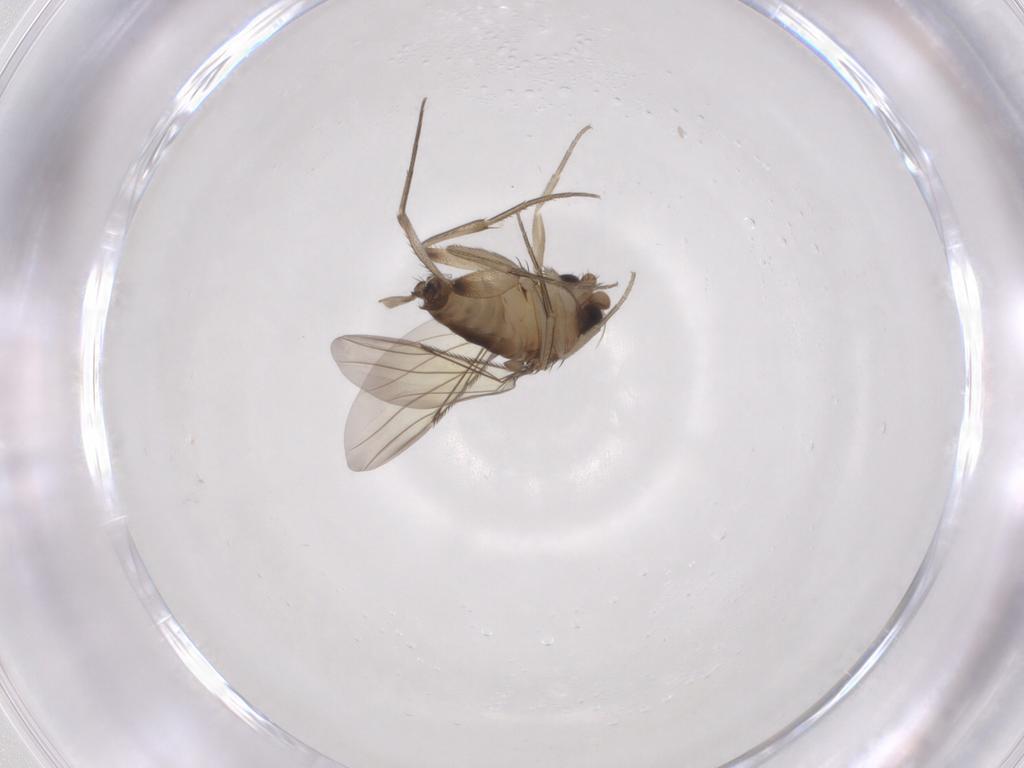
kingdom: Animalia
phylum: Arthropoda
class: Insecta
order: Diptera
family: Phoridae
